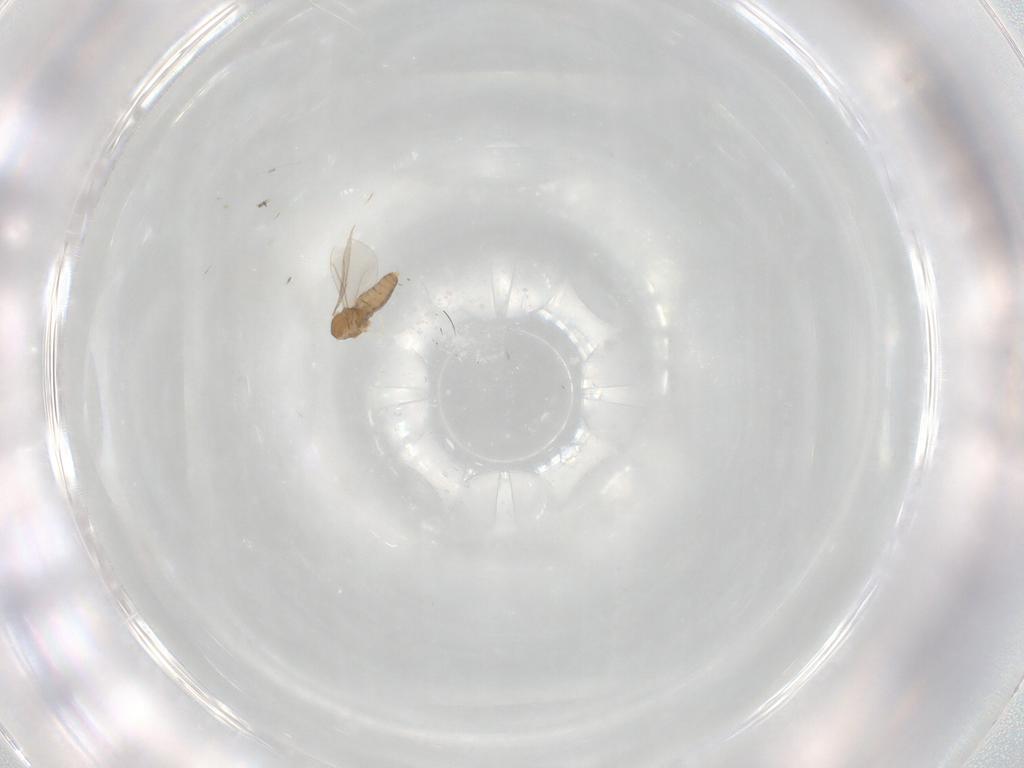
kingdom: Animalia
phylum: Arthropoda
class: Insecta
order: Diptera
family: Cecidomyiidae
